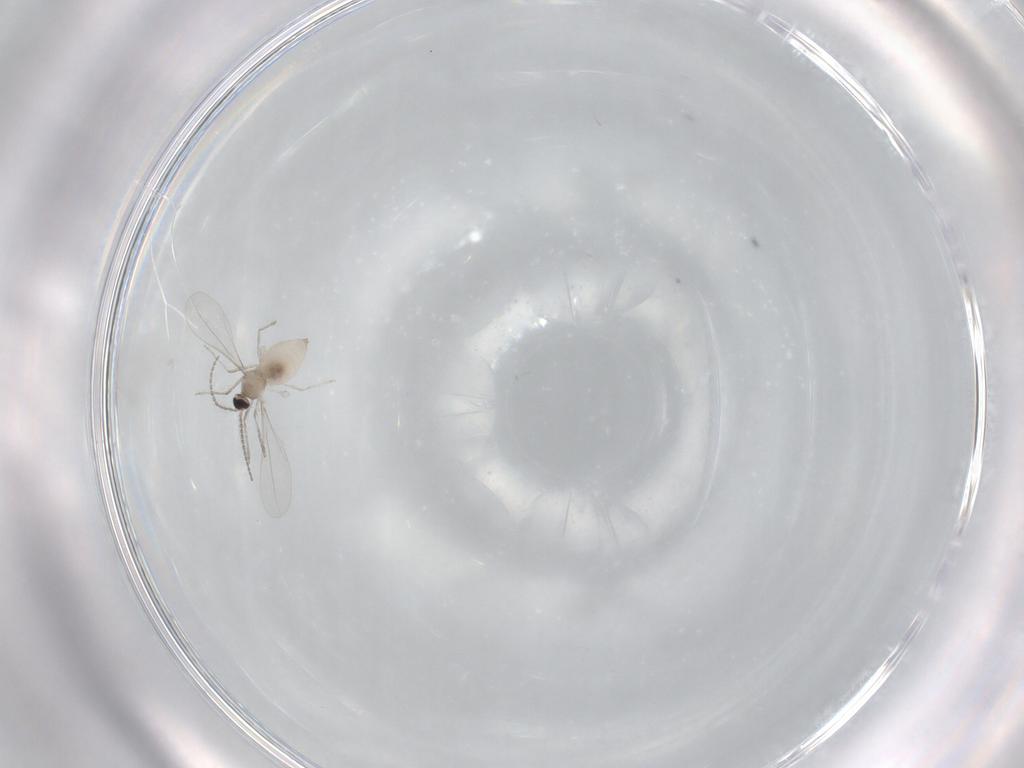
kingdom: Animalia
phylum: Arthropoda
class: Insecta
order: Diptera
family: Cecidomyiidae
